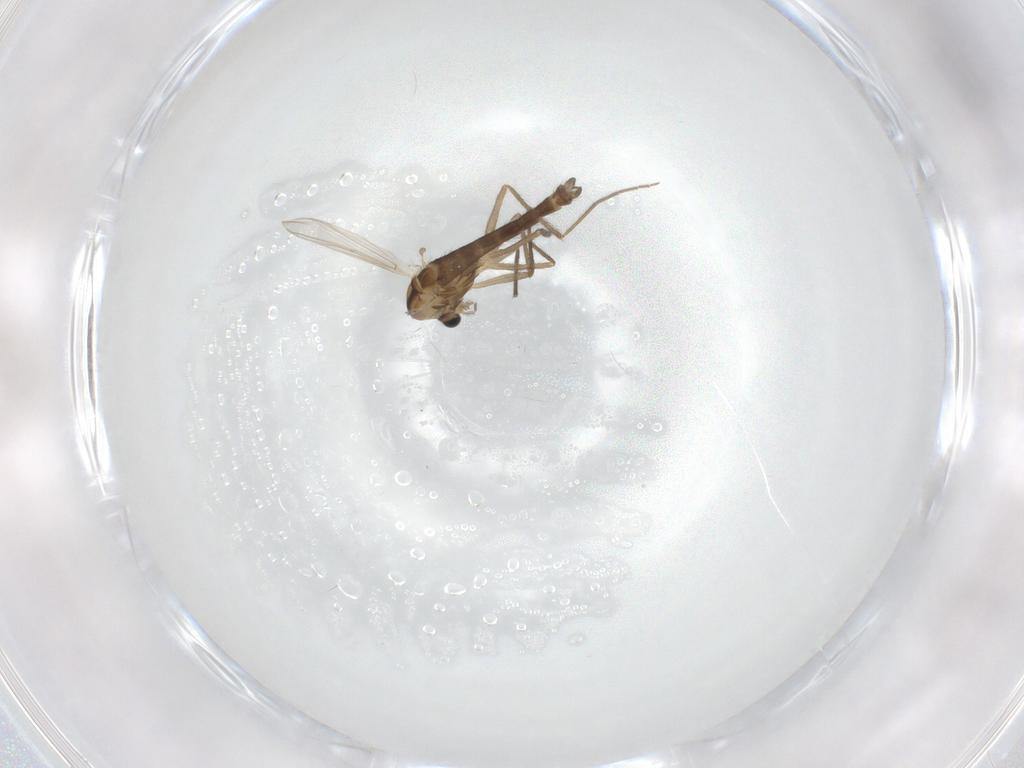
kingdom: Animalia
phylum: Arthropoda
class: Insecta
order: Diptera
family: Chironomidae
